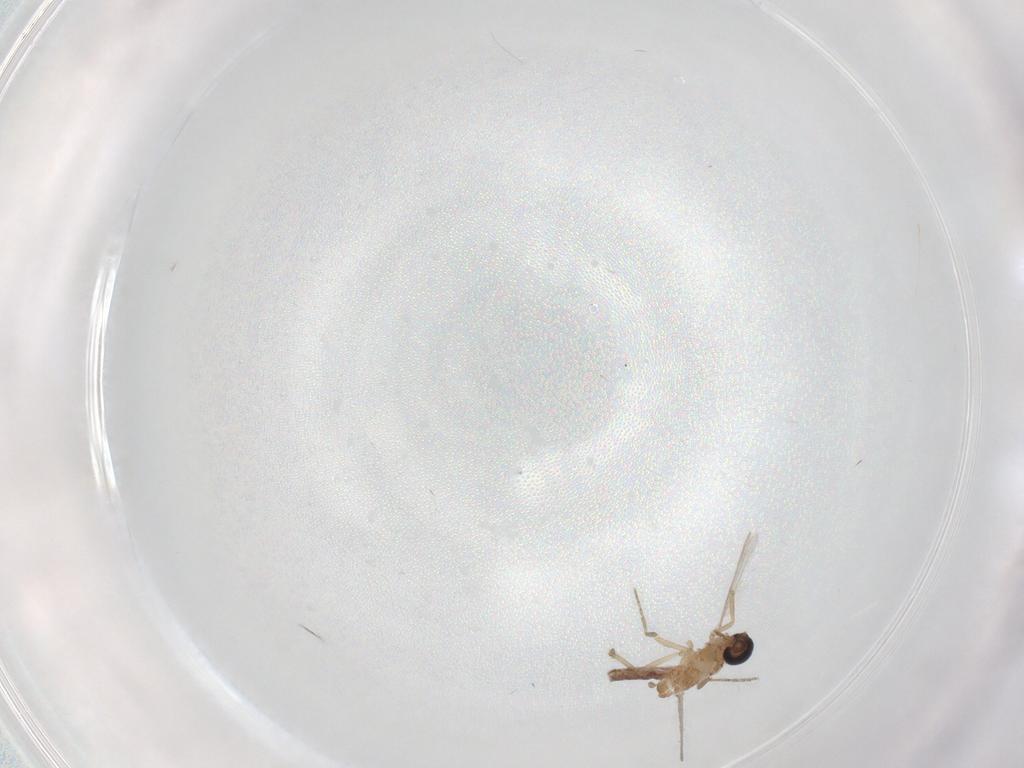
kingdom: Animalia
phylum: Arthropoda
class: Insecta
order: Diptera
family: Ceratopogonidae
